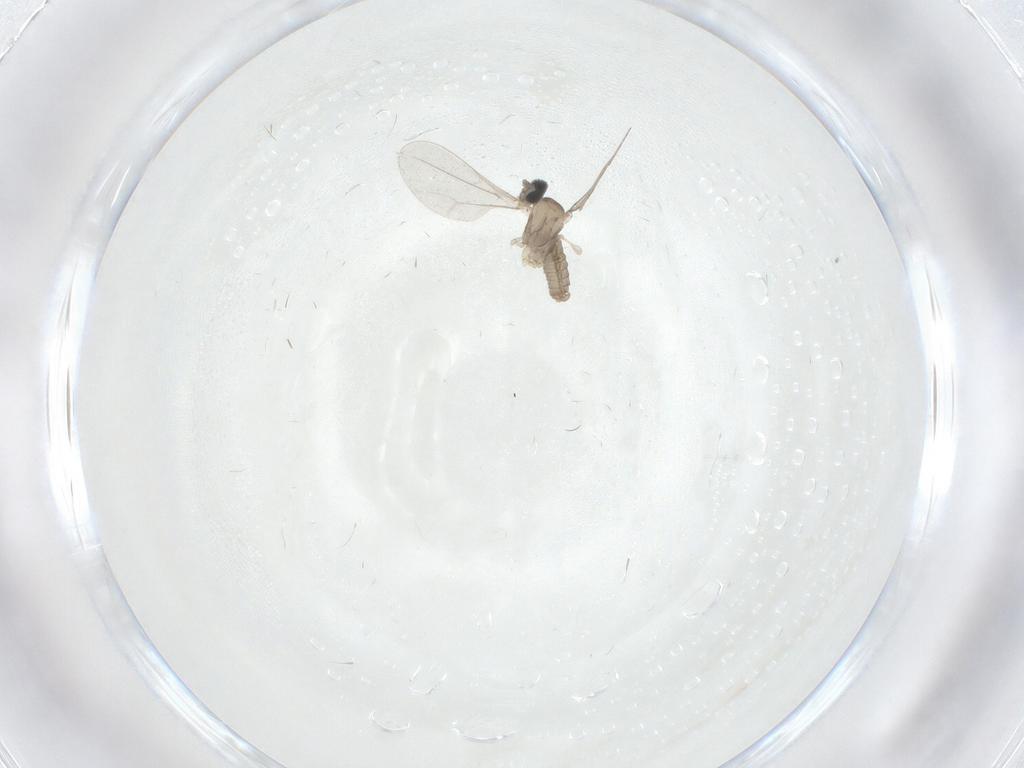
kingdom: Animalia
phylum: Arthropoda
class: Insecta
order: Diptera
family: Cecidomyiidae
